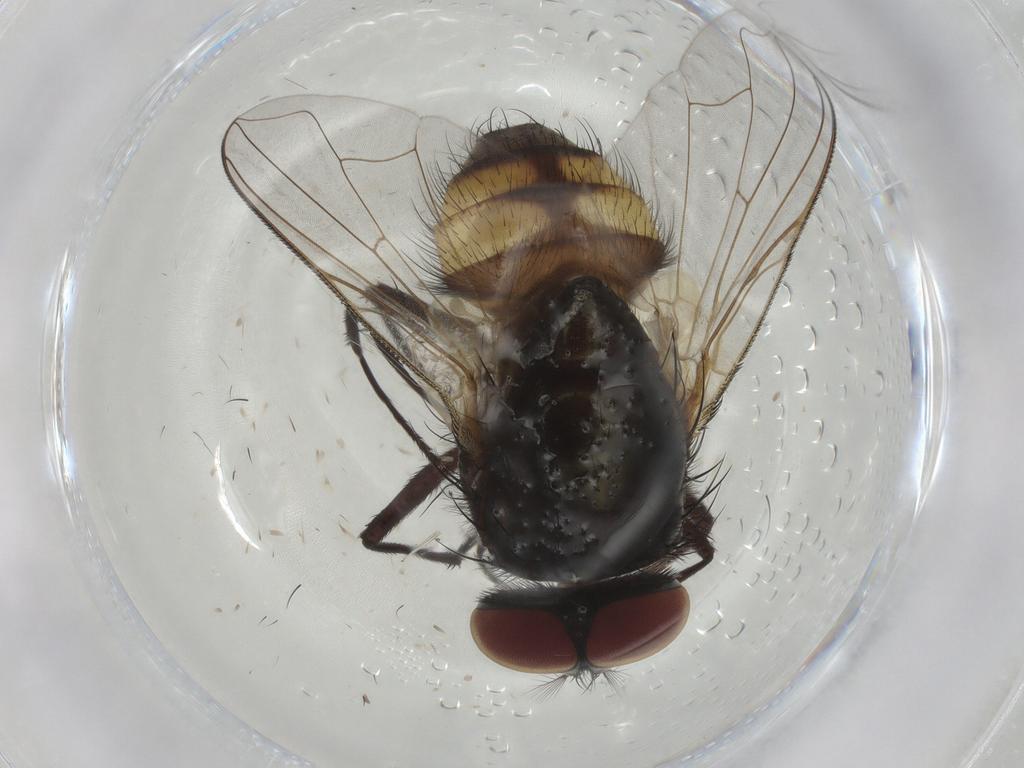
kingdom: Animalia
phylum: Arthropoda
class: Insecta
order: Diptera
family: Muscidae
